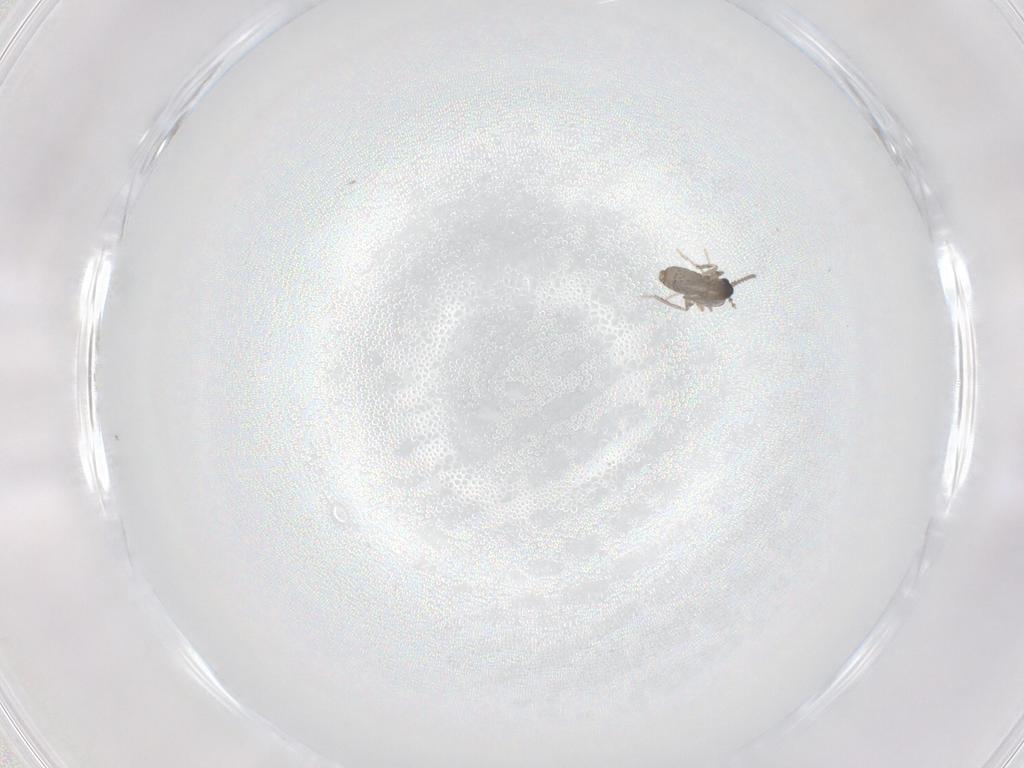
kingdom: Animalia
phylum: Arthropoda
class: Insecta
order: Diptera
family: Cecidomyiidae
